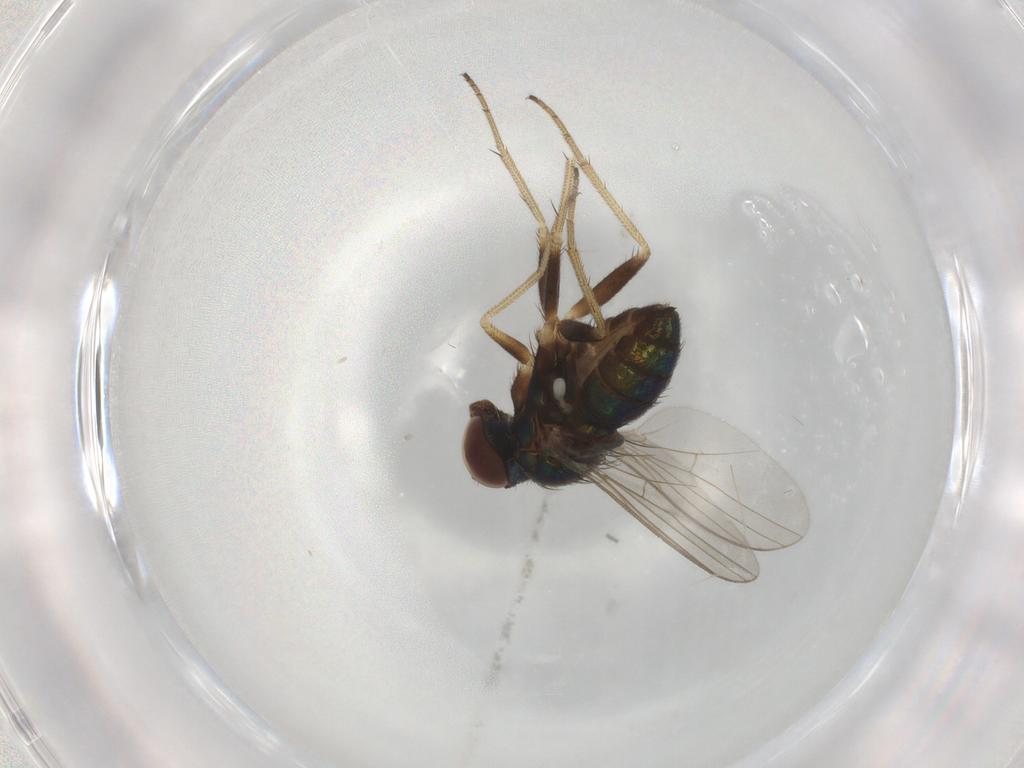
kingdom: Animalia
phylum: Arthropoda
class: Insecta
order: Diptera
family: Dolichopodidae
